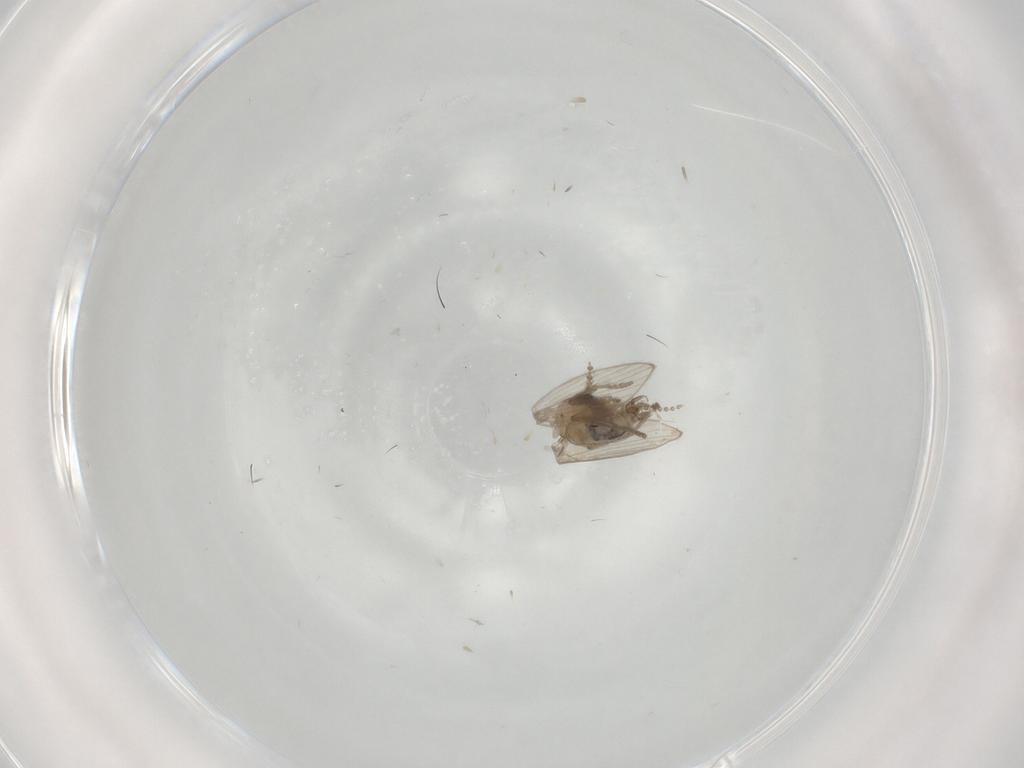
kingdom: Animalia
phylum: Arthropoda
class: Insecta
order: Diptera
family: Psychodidae
